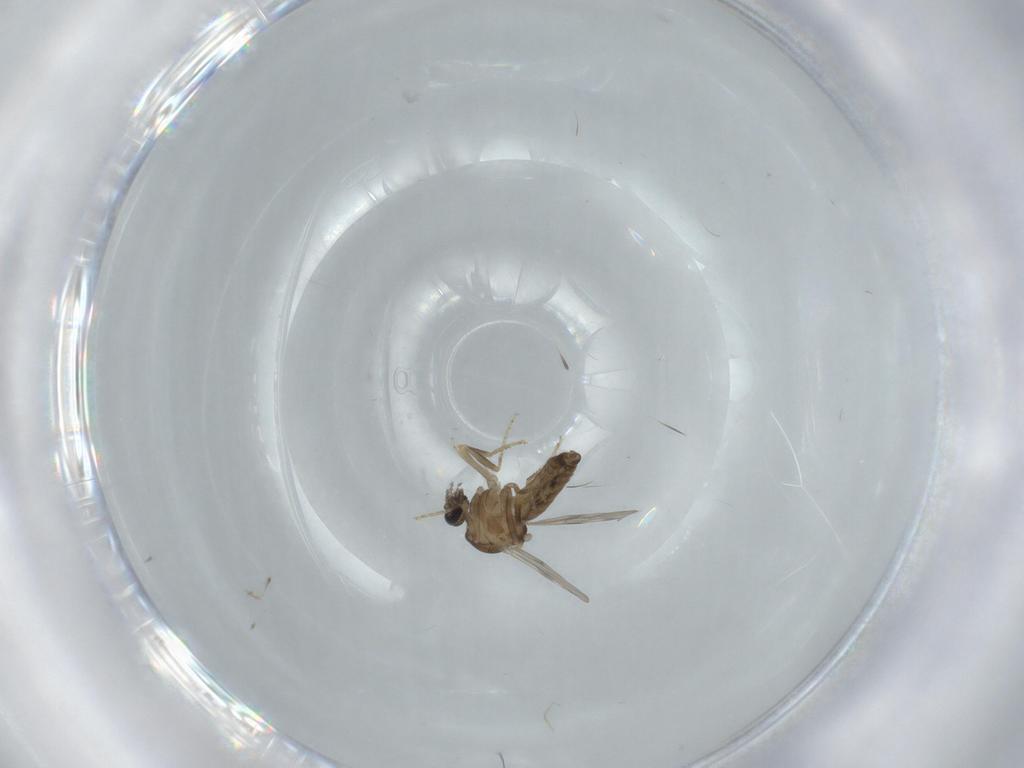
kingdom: Animalia
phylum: Arthropoda
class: Insecta
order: Diptera
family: Ceratopogonidae
